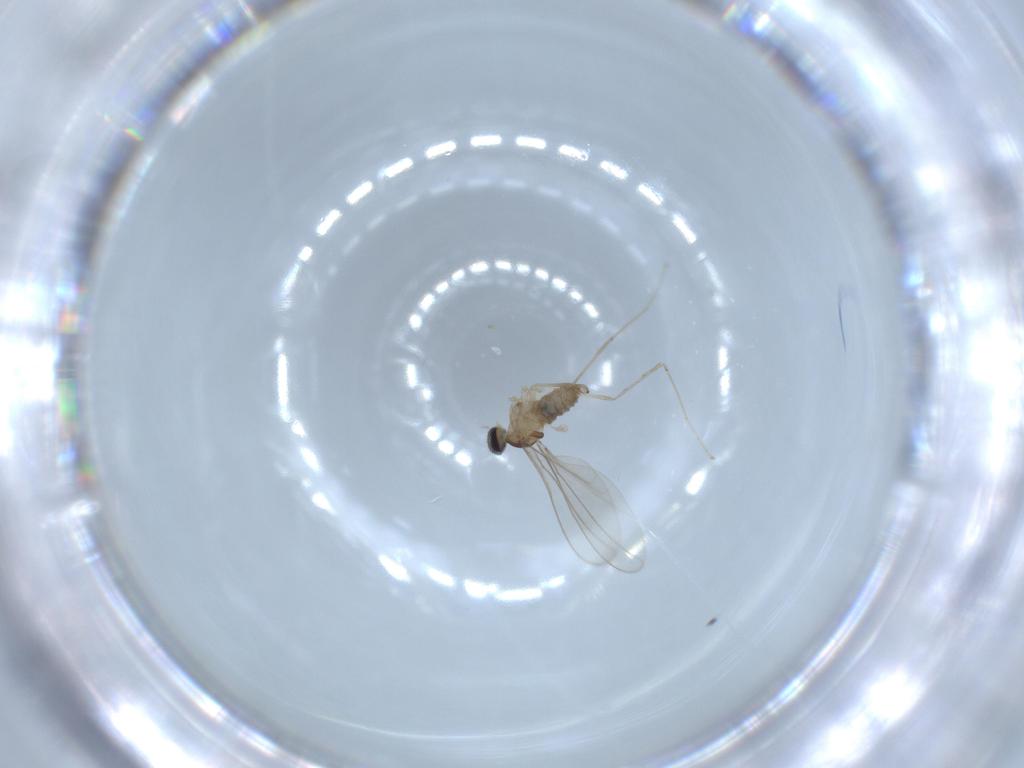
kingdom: Animalia
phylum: Arthropoda
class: Insecta
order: Diptera
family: Cecidomyiidae
